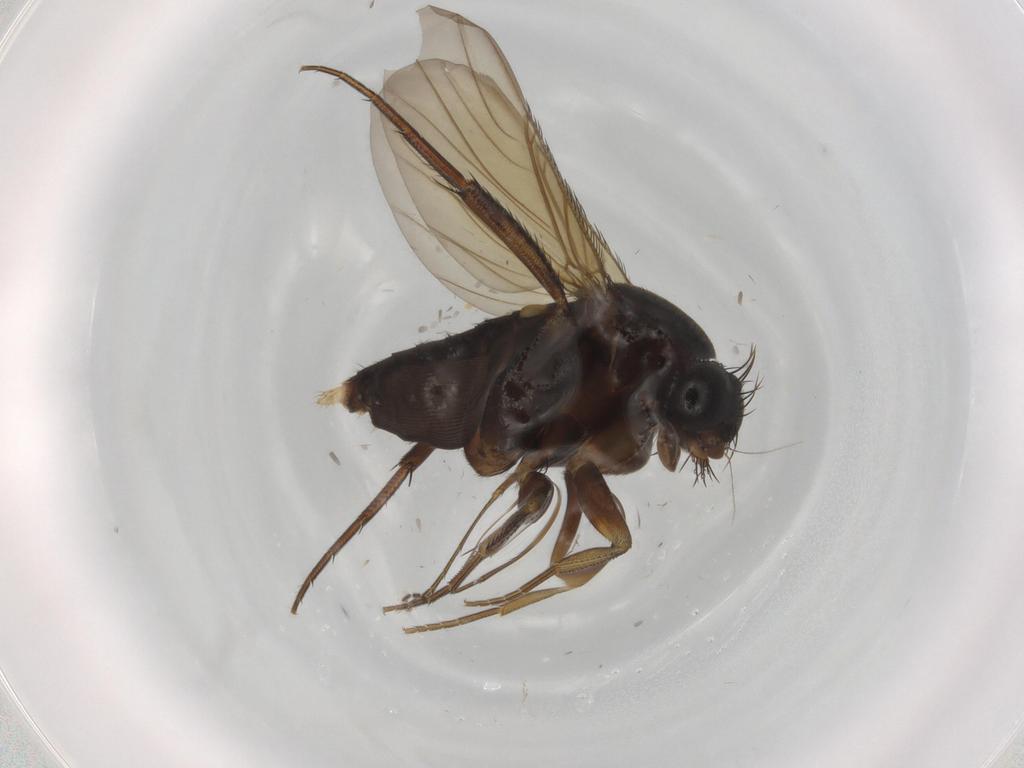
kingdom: Animalia
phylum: Arthropoda
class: Insecta
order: Diptera
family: Phoridae
